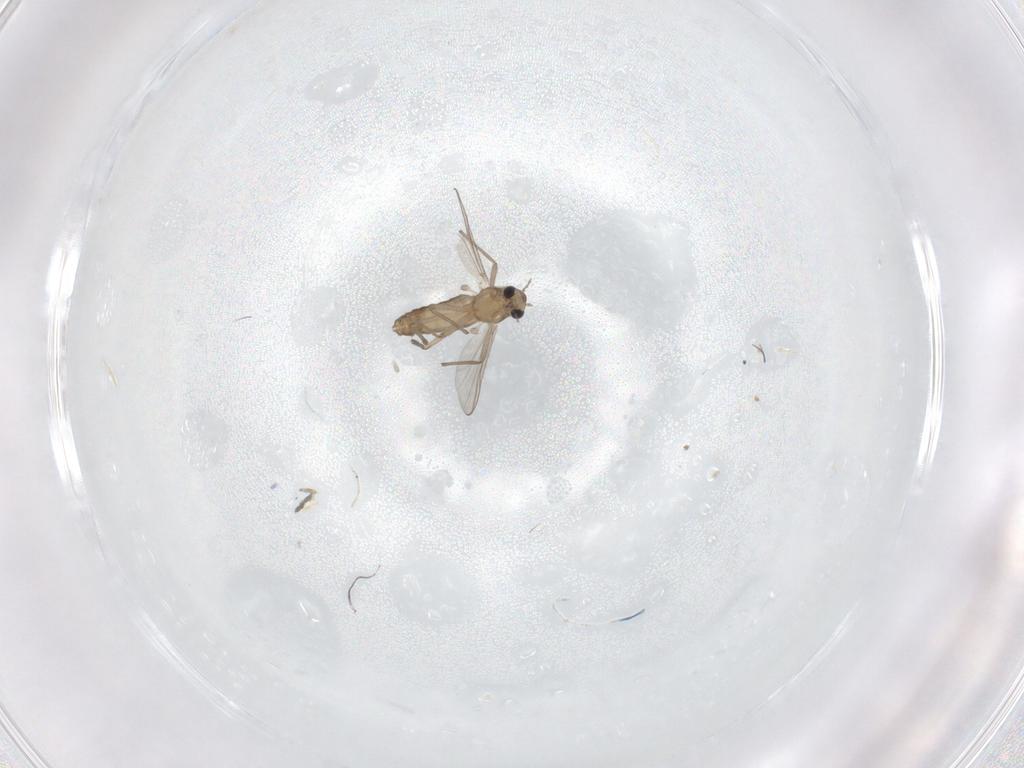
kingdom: Animalia
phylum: Arthropoda
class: Insecta
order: Diptera
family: Chironomidae
